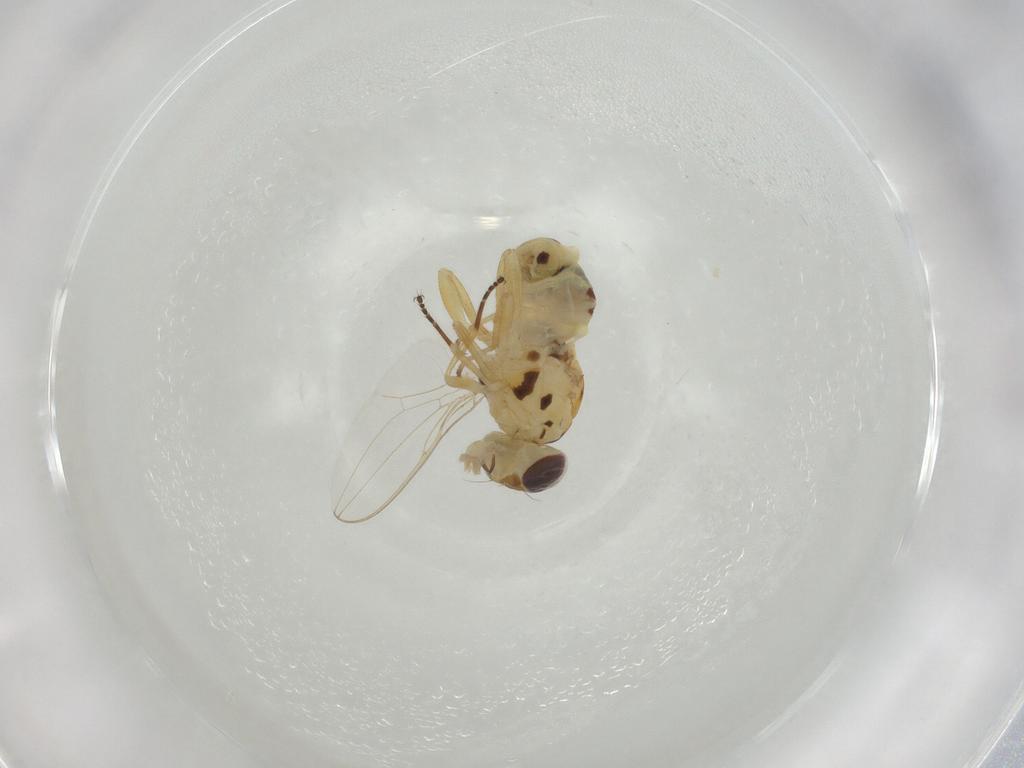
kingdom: Animalia
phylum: Arthropoda
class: Insecta
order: Diptera
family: Asteiidae
